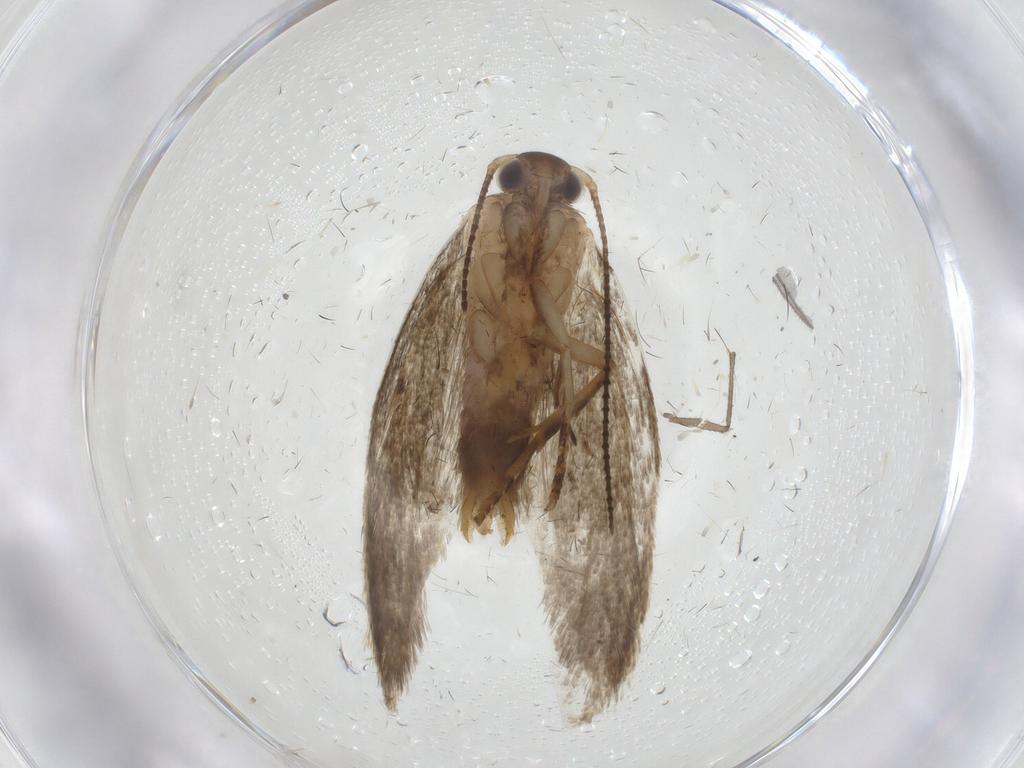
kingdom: Animalia
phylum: Arthropoda
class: Insecta
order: Lepidoptera
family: Oecophoridae
